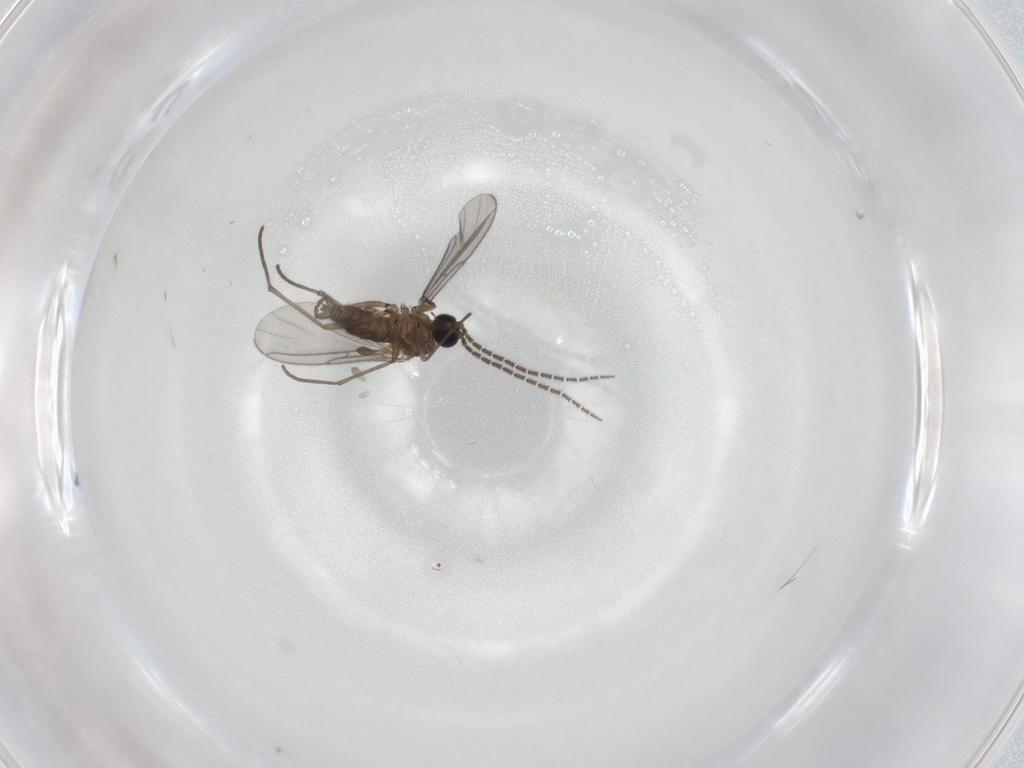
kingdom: Animalia
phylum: Arthropoda
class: Insecta
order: Diptera
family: Sciaridae
